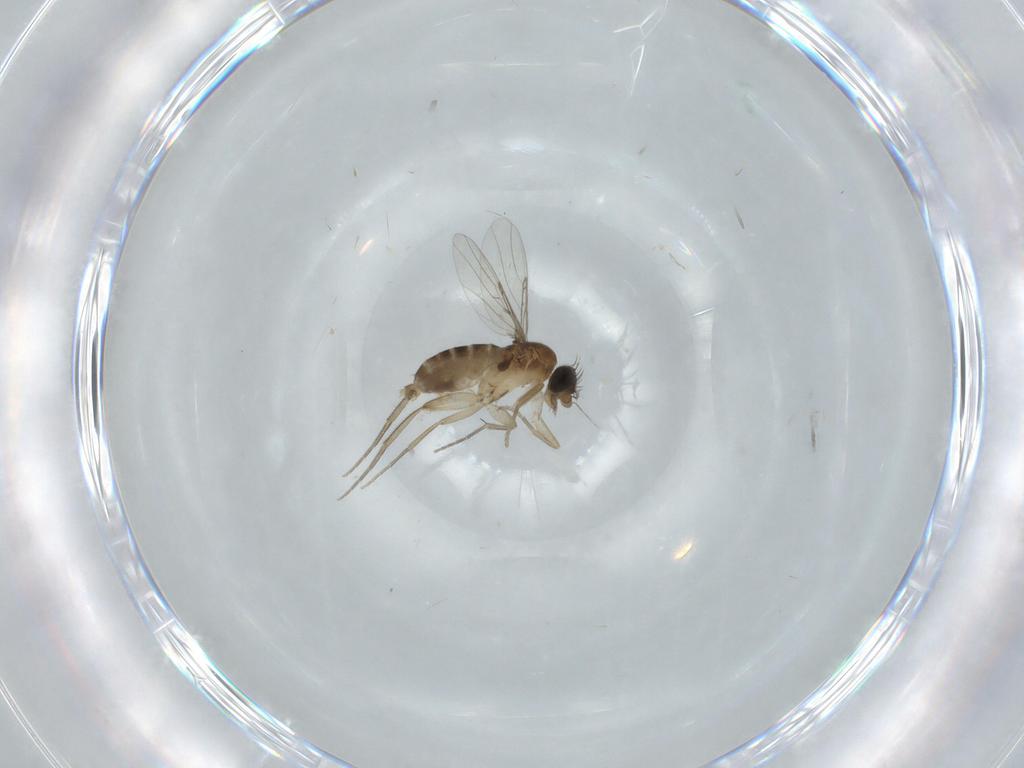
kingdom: Animalia
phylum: Arthropoda
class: Insecta
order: Diptera
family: Phoridae
